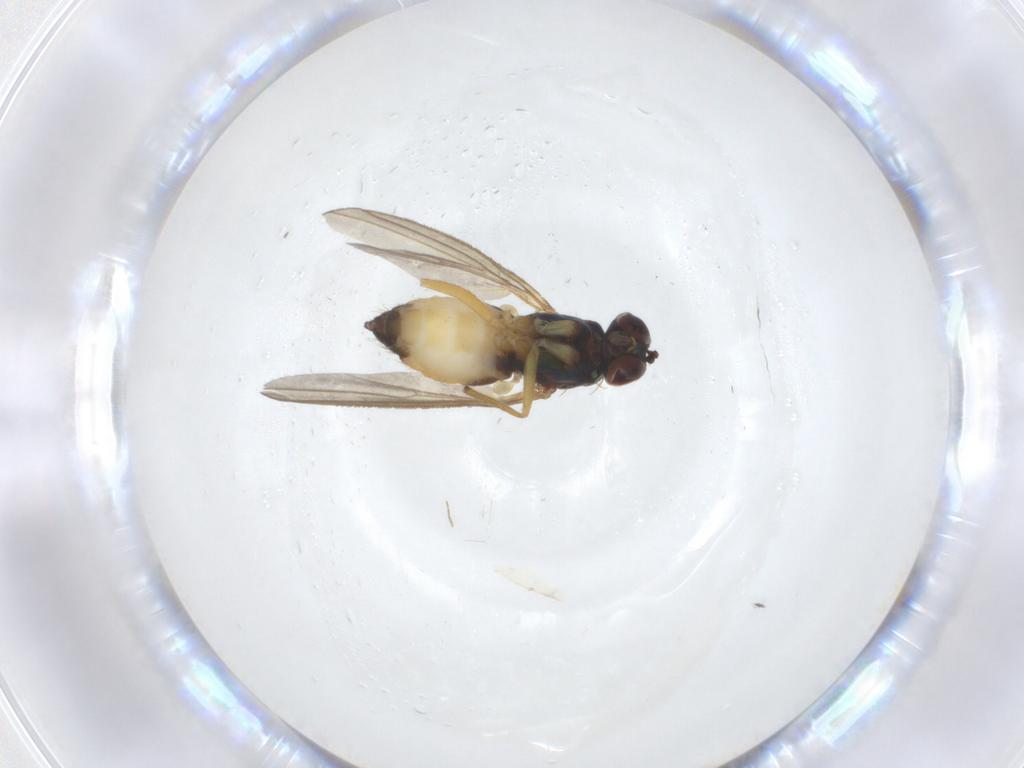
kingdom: Animalia
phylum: Arthropoda
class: Insecta
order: Diptera
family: Dolichopodidae
